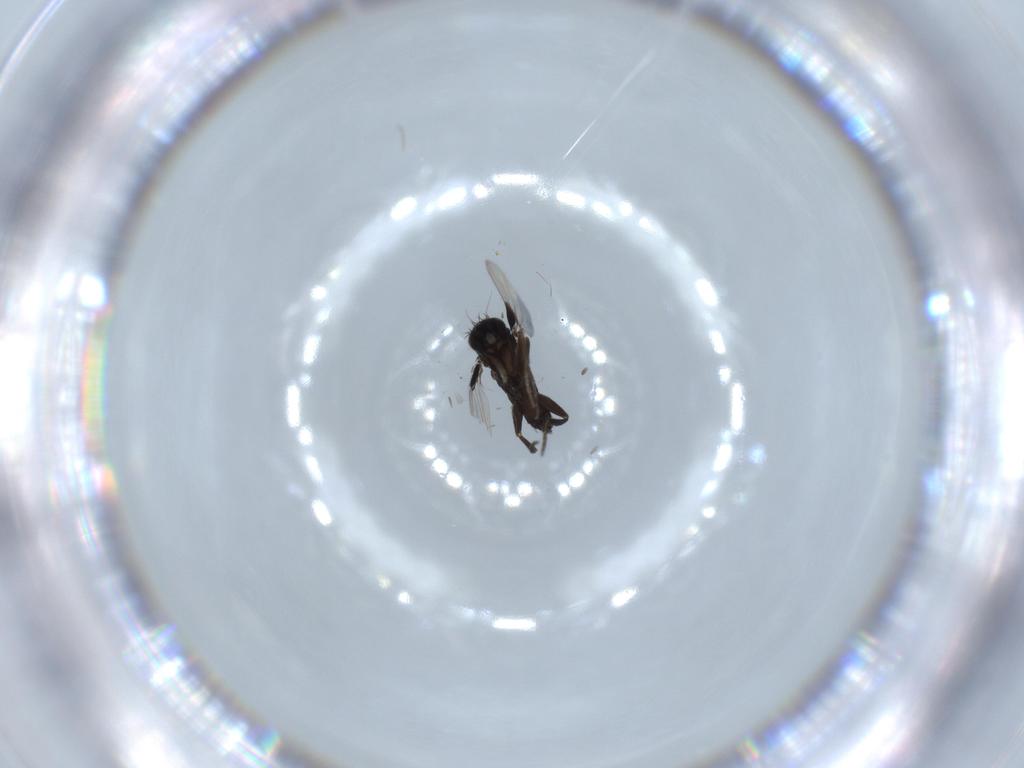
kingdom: Animalia
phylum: Arthropoda
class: Insecta
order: Diptera
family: Phoridae
